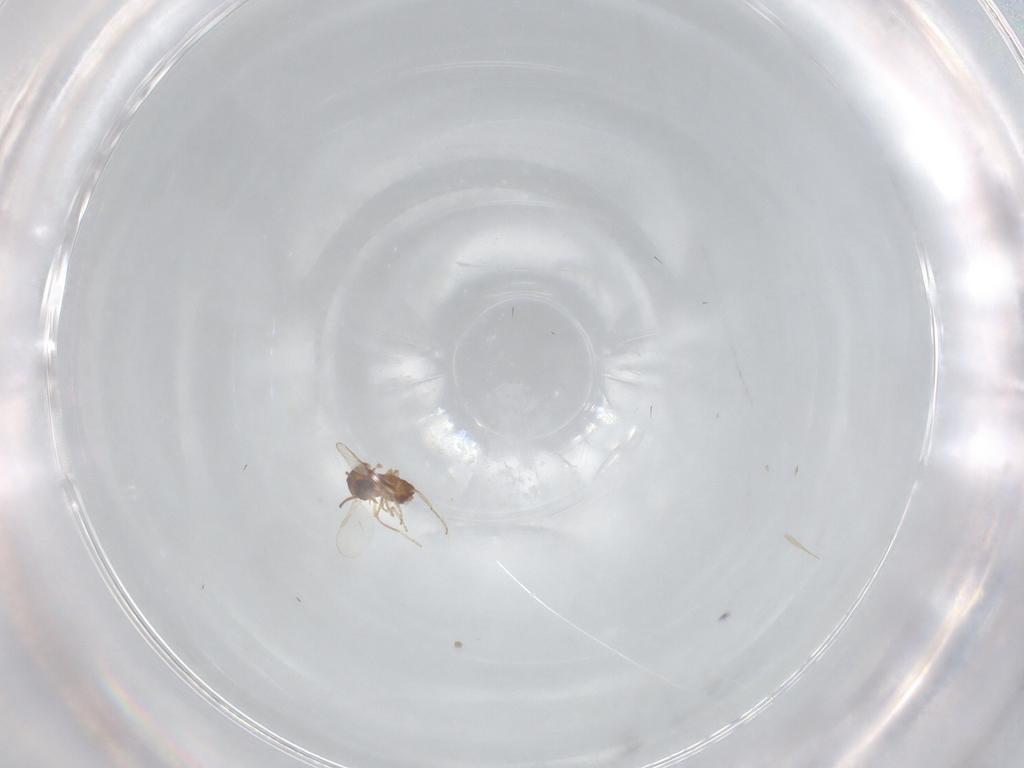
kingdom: Animalia
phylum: Arthropoda
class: Insecta
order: Diptera
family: Ceratopogonidae
